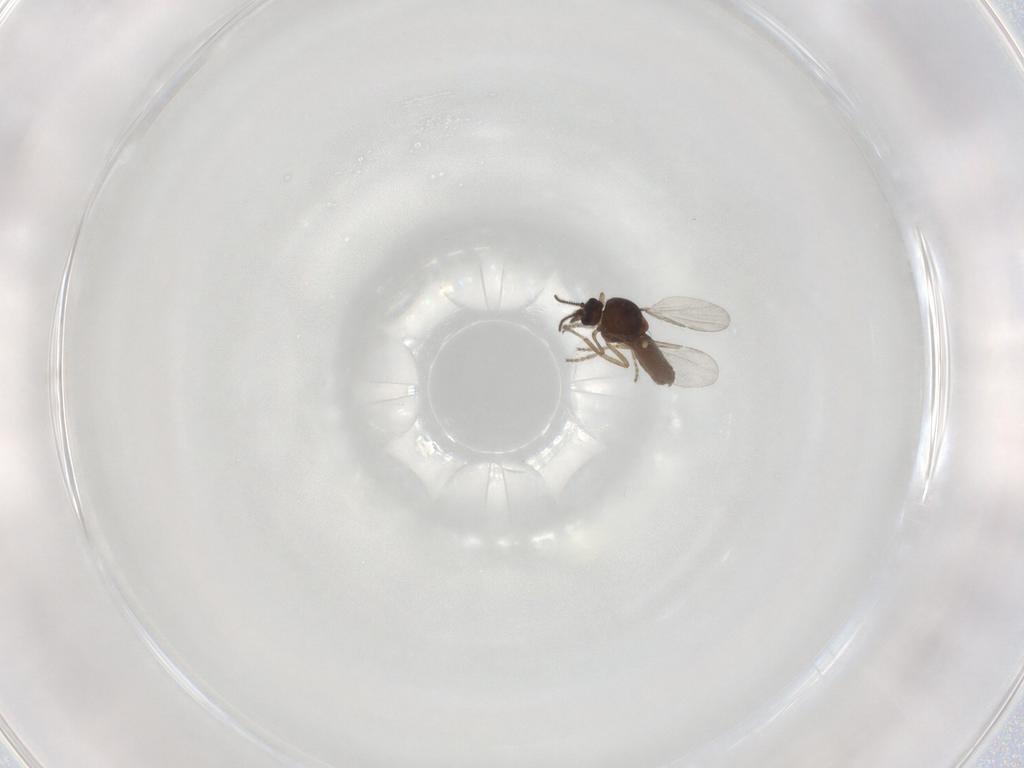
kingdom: Animalia
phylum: Arthropoda
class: Insecta
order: Diptera
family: Ceratopogonidae
